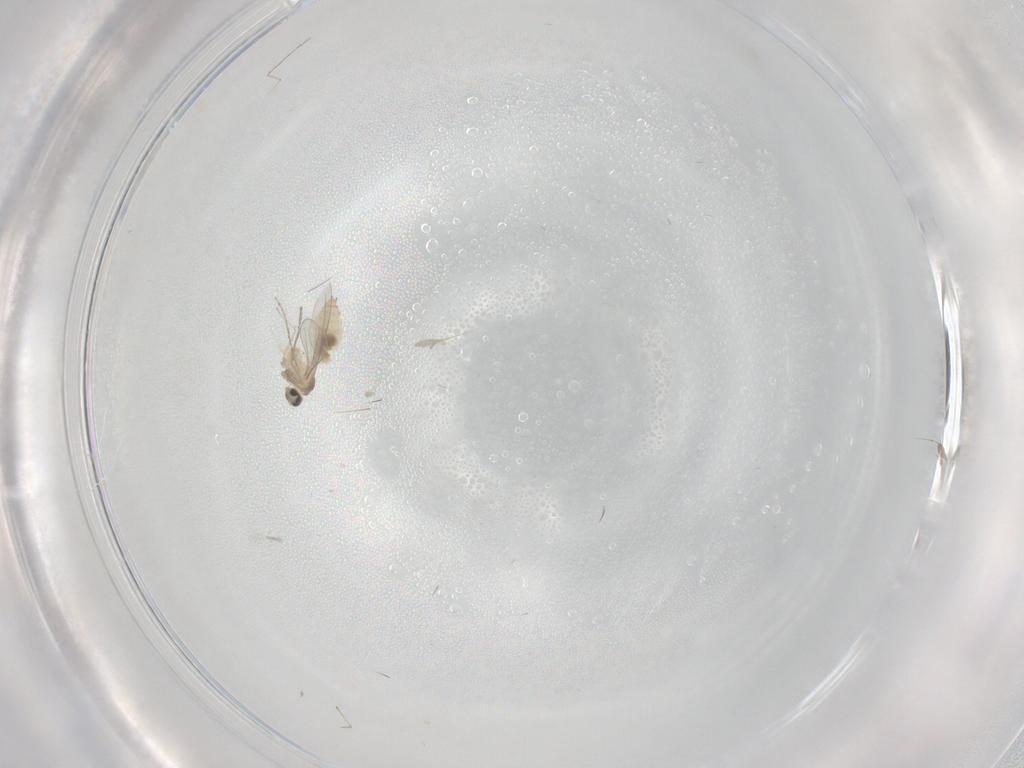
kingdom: Animalia
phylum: Arthropoda
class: Insecta
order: Diptera
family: Cecidomyiidae
